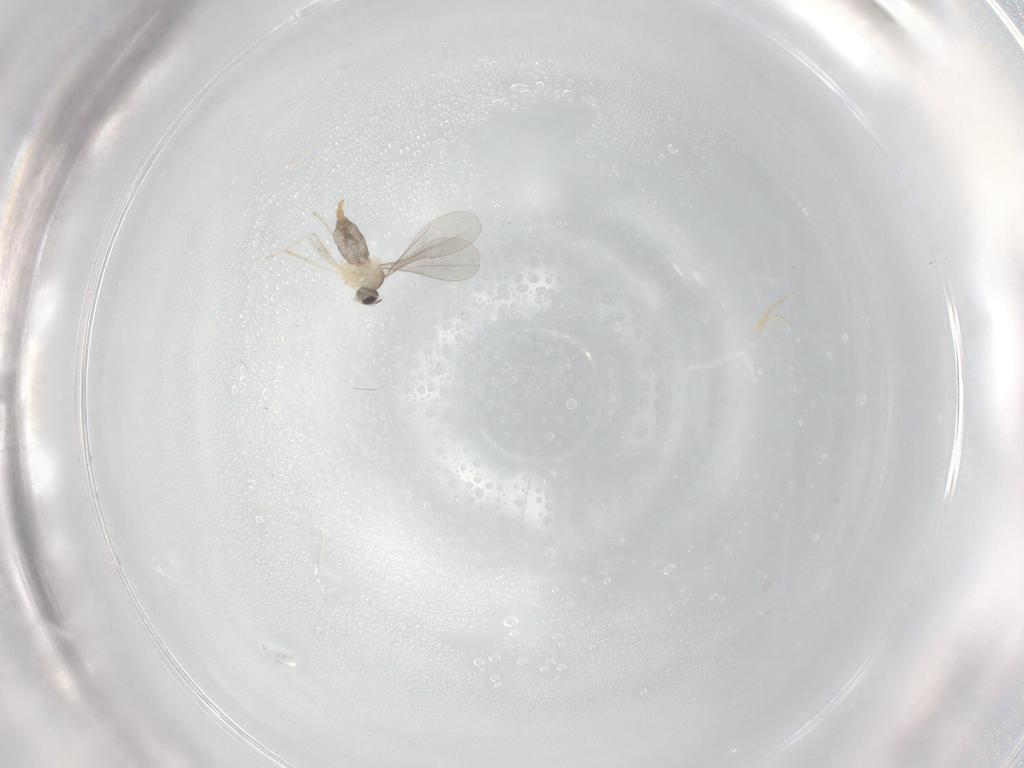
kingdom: Animalia
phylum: Arthropoda
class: Insecta
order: Diptera
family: Cecidomyiidae
